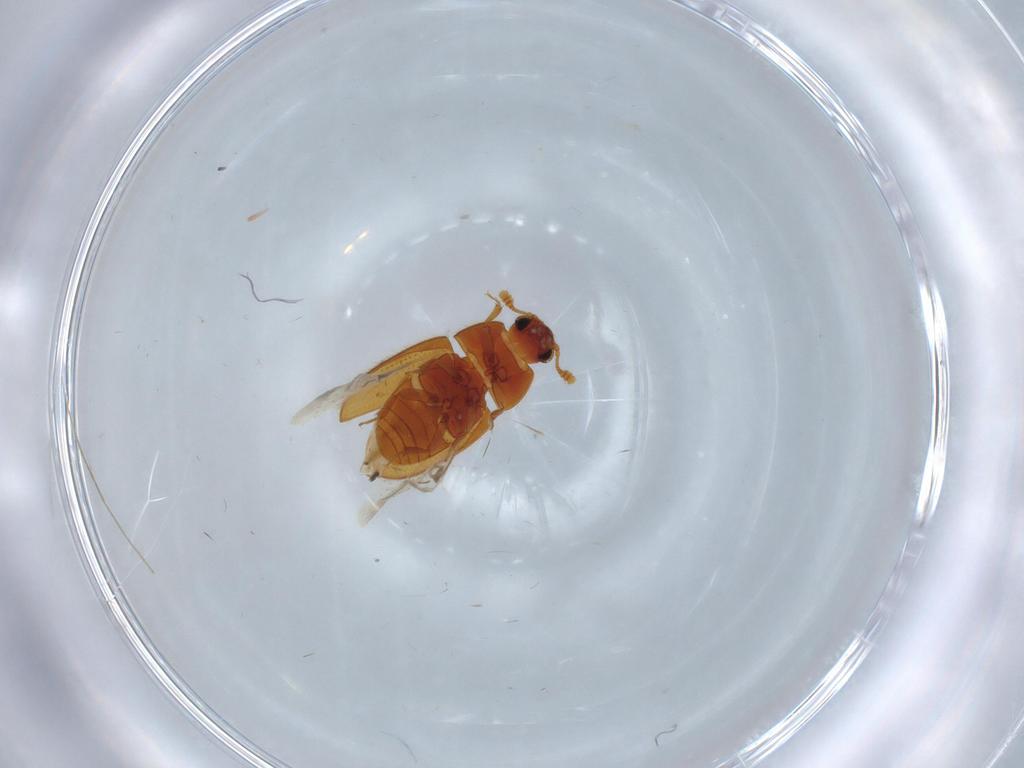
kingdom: Animalia
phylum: Arthropoda
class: Insecta
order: Coleoptera
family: Biphyllidae
